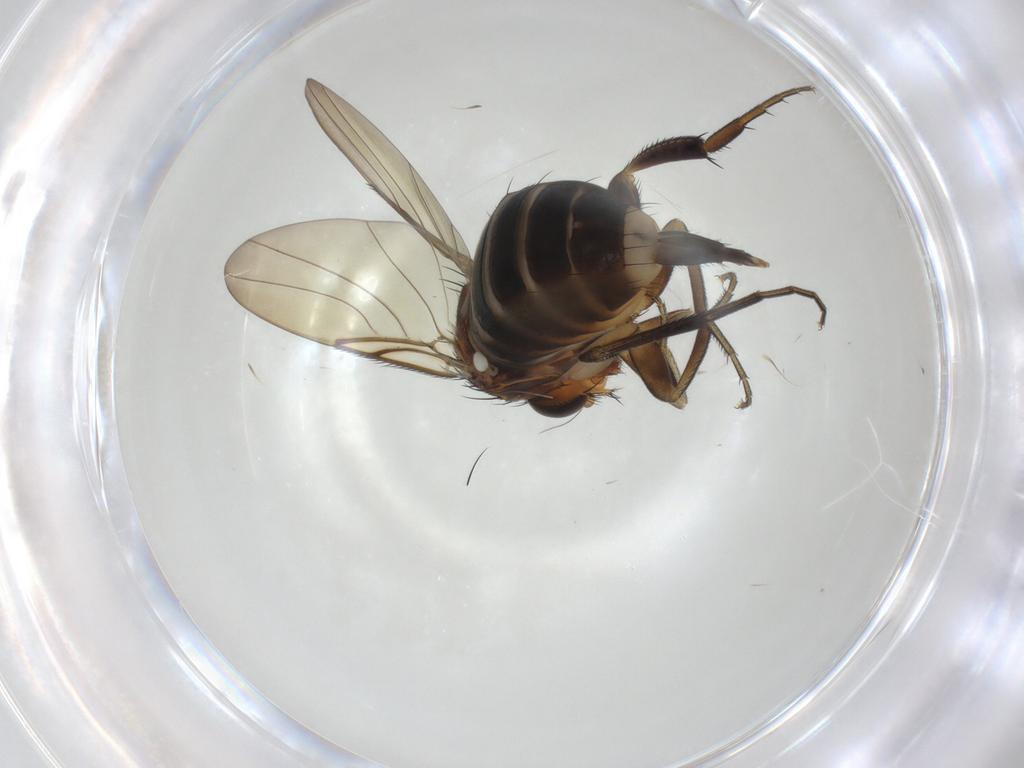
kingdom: Animalia
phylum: Arthropoda
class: Insecta
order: Diptera
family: Phoridae
